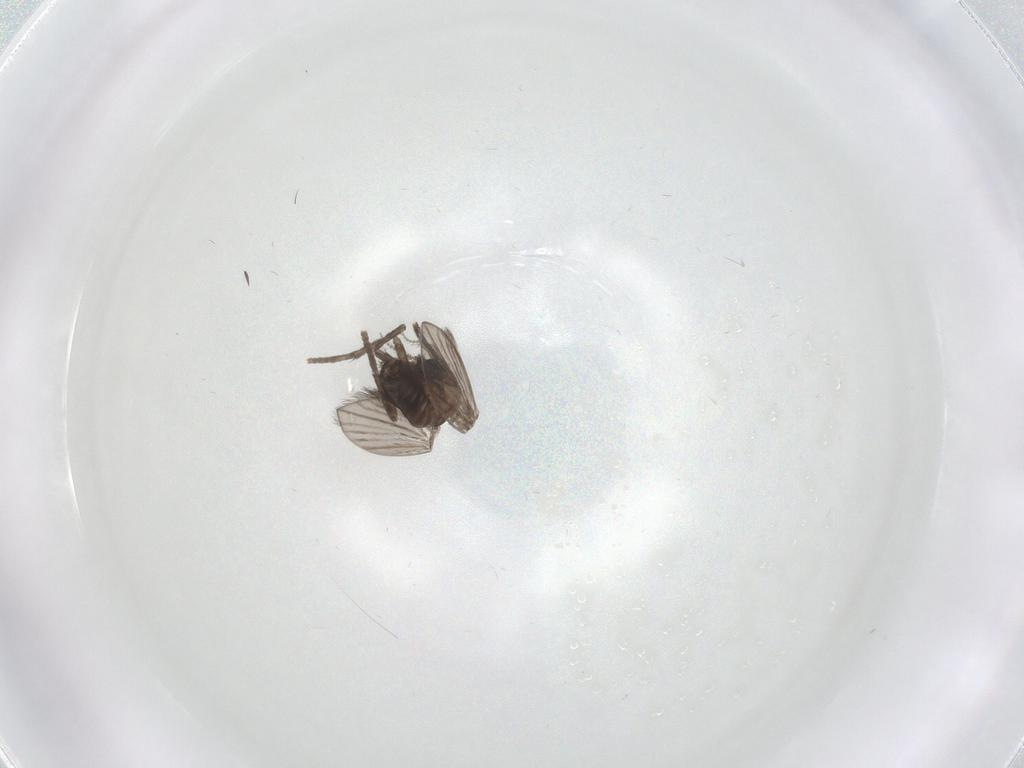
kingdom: Animalia
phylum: Arthropoda
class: Insecta
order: Diptera
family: Psychodidae
